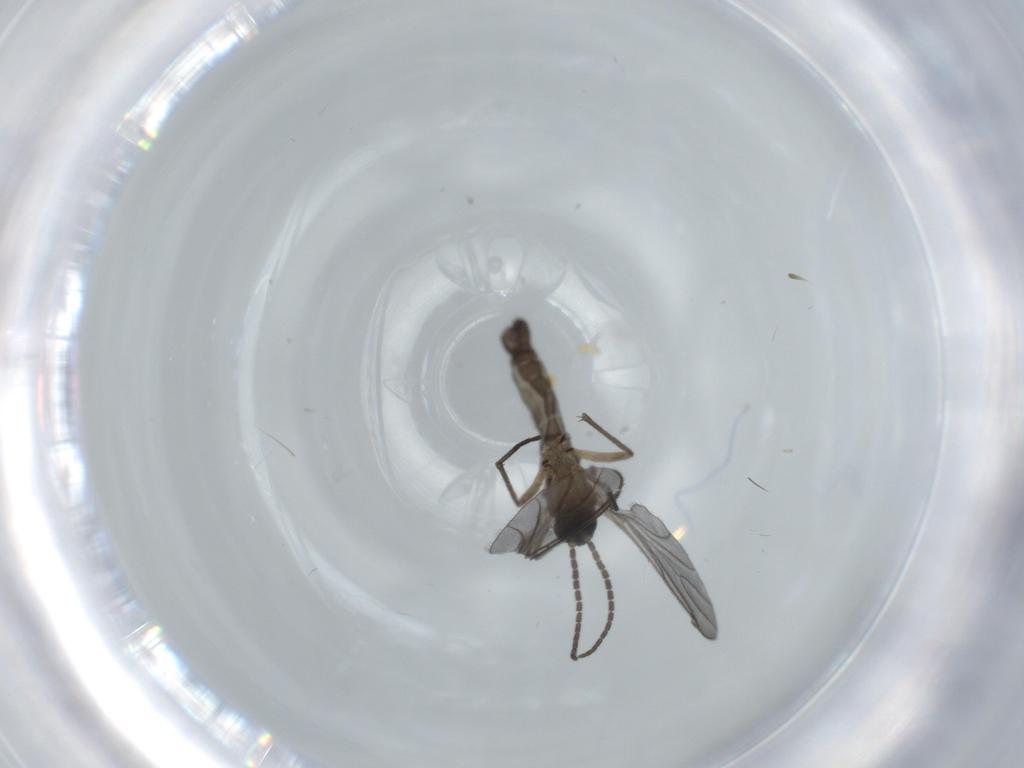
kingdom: Animalia
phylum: Arthropoda
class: Insecta
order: Diptera
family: Sciaridae
